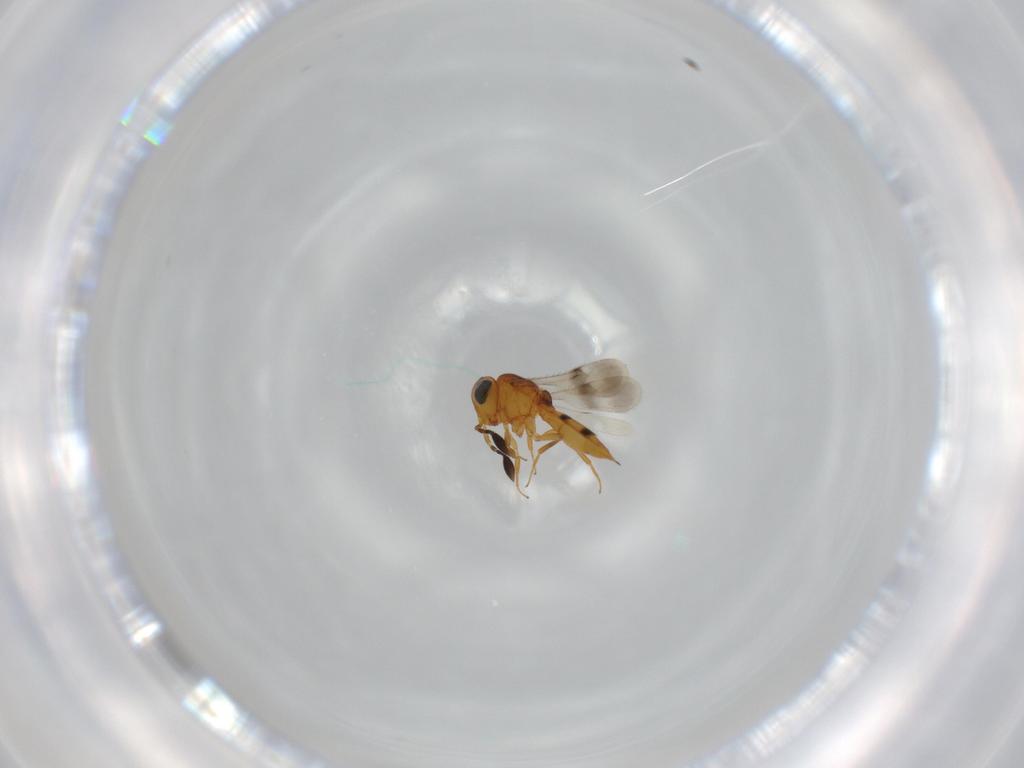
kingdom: Animalia
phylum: Arthropoda
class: Insecta
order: Hymenoptera
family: Scelionidae
